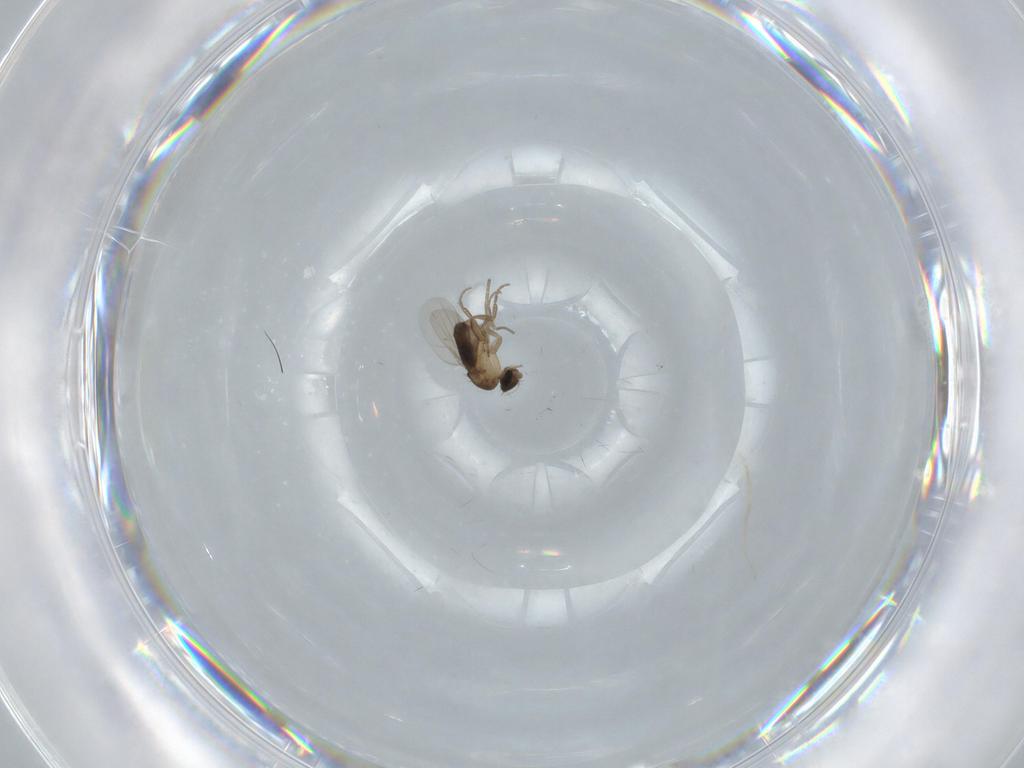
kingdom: Animalia
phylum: Arthropoda
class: Insecta
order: Diptera
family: Phoridae
